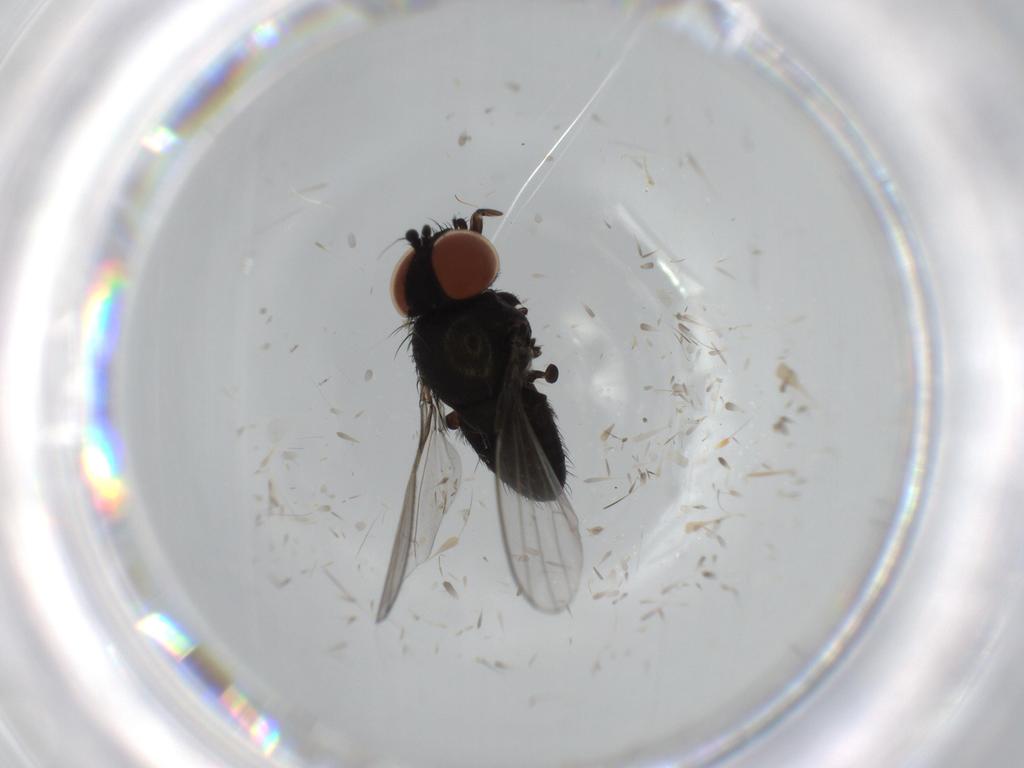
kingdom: Animalia
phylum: Arthropoda
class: Insecta
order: Diptera
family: Milichiidae
